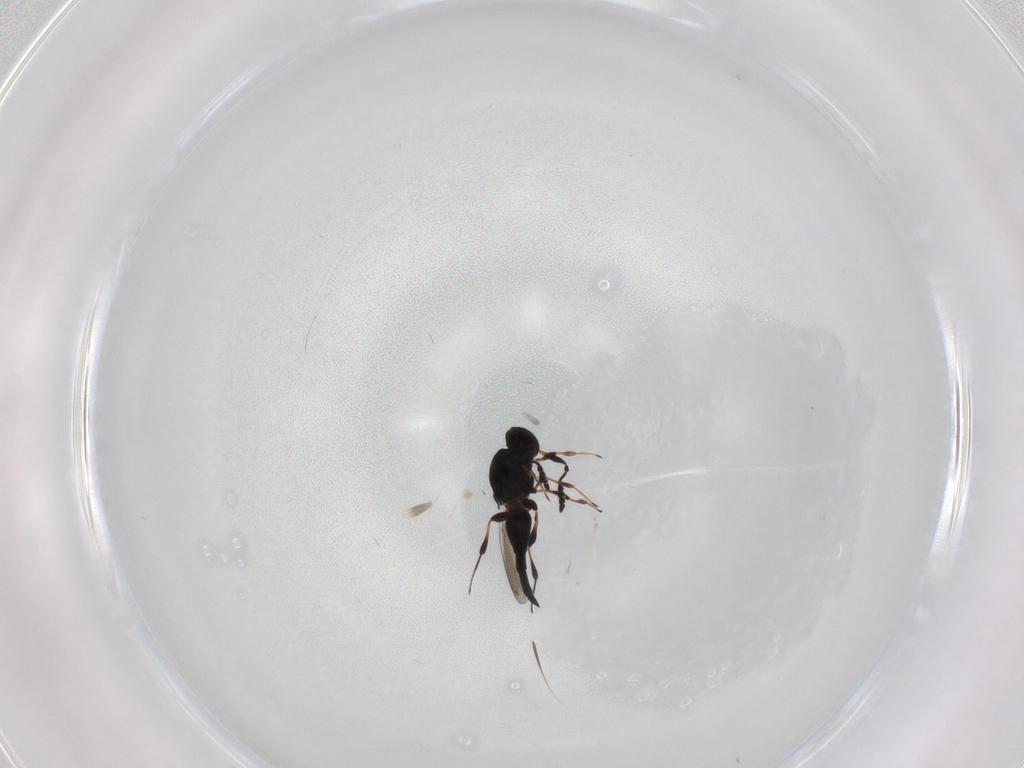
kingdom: Animalia
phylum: Arthropoda
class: Insecta
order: Hymenoptera
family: Platygastridae
